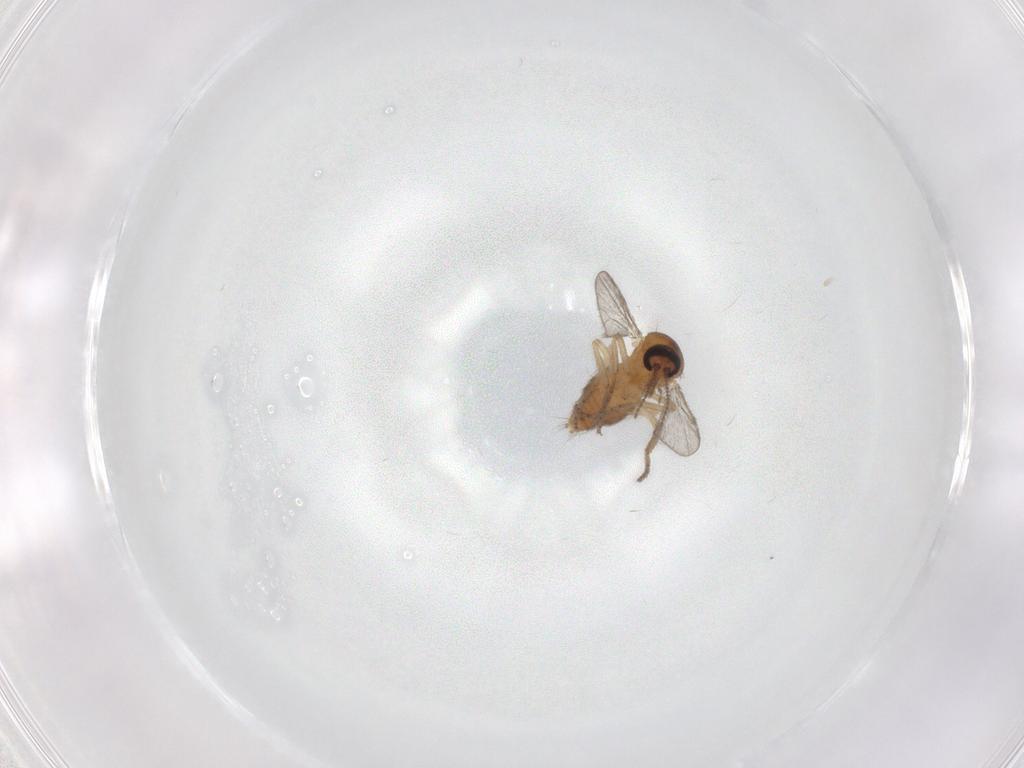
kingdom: Animalia
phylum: Arthropoda
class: Insecta
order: Diptera
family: Ceratopogonidae
